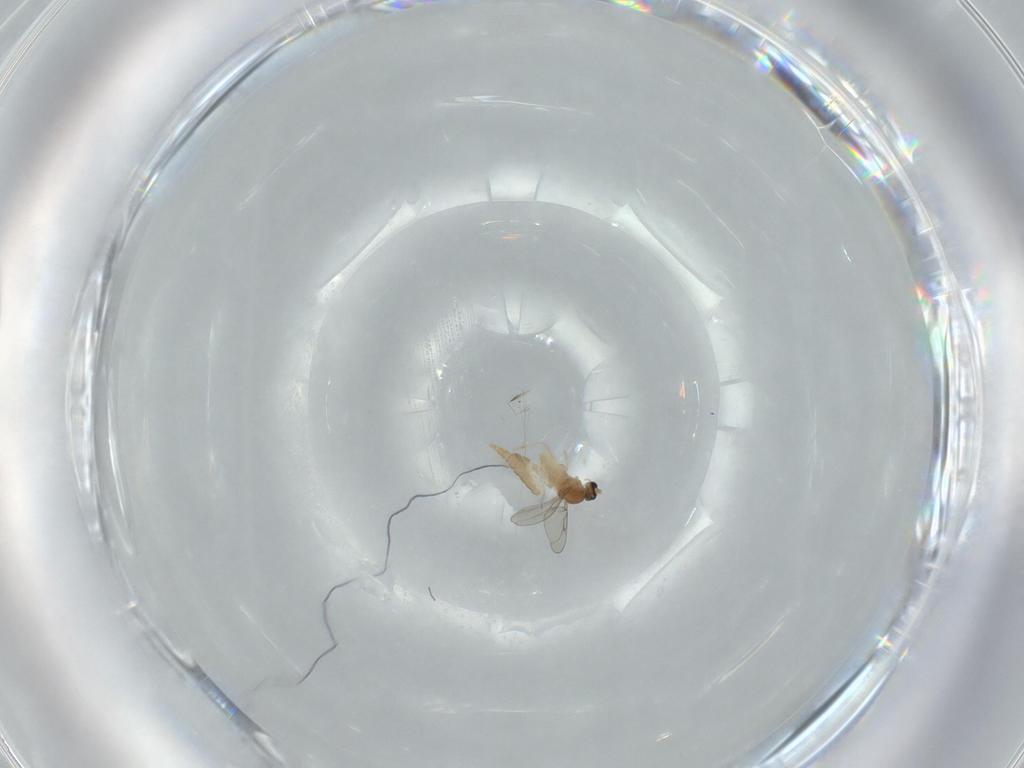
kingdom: Animalia
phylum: Arthropoda
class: Insecta
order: Diptera
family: Cecidomyiidae
